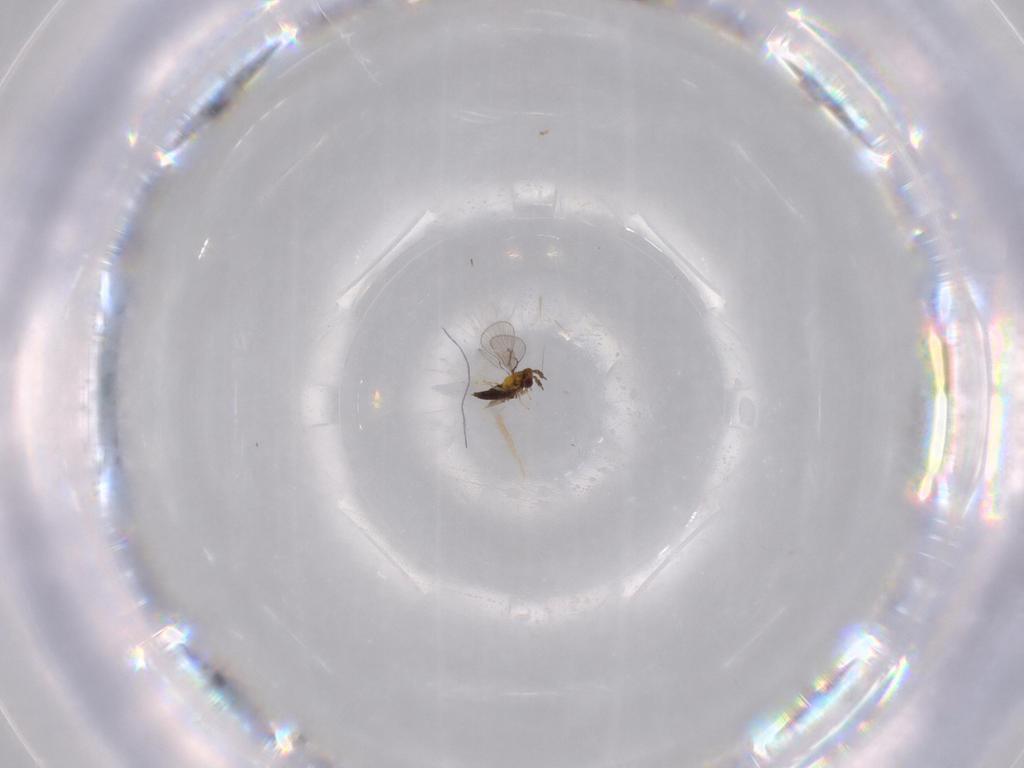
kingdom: Animalia
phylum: Arthropoda
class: Insecta
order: Hymenoptera
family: Trichogrammatidae
